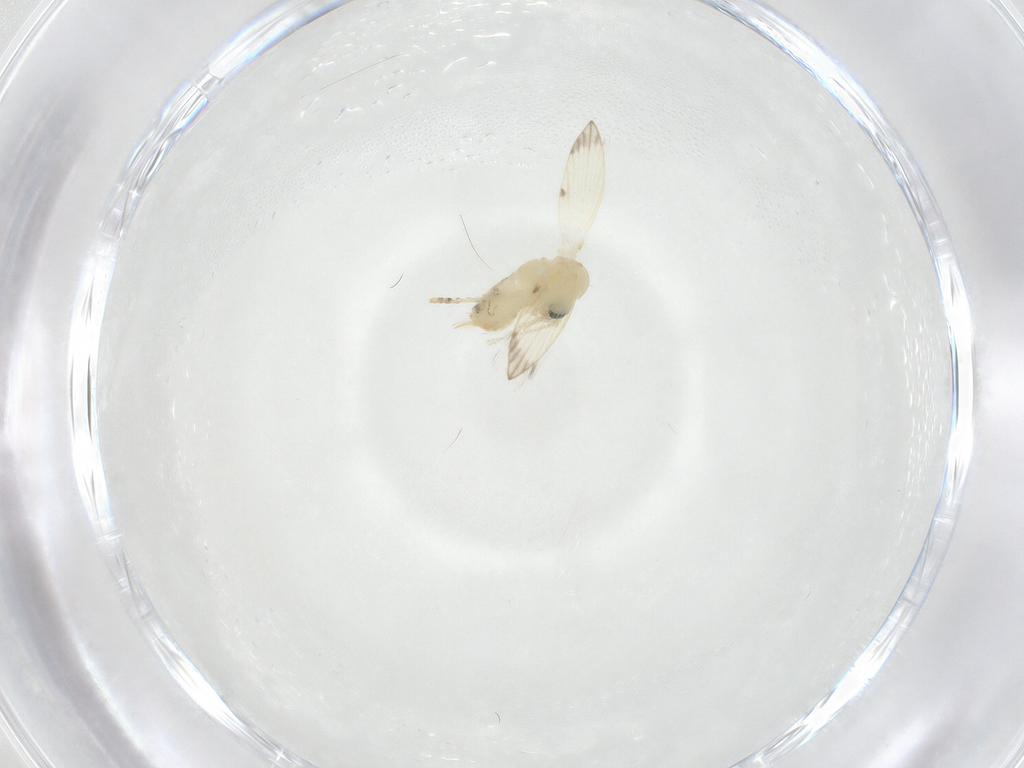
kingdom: Animalia
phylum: Arthropoda
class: Insecta
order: Diptera
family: Psychodidae
